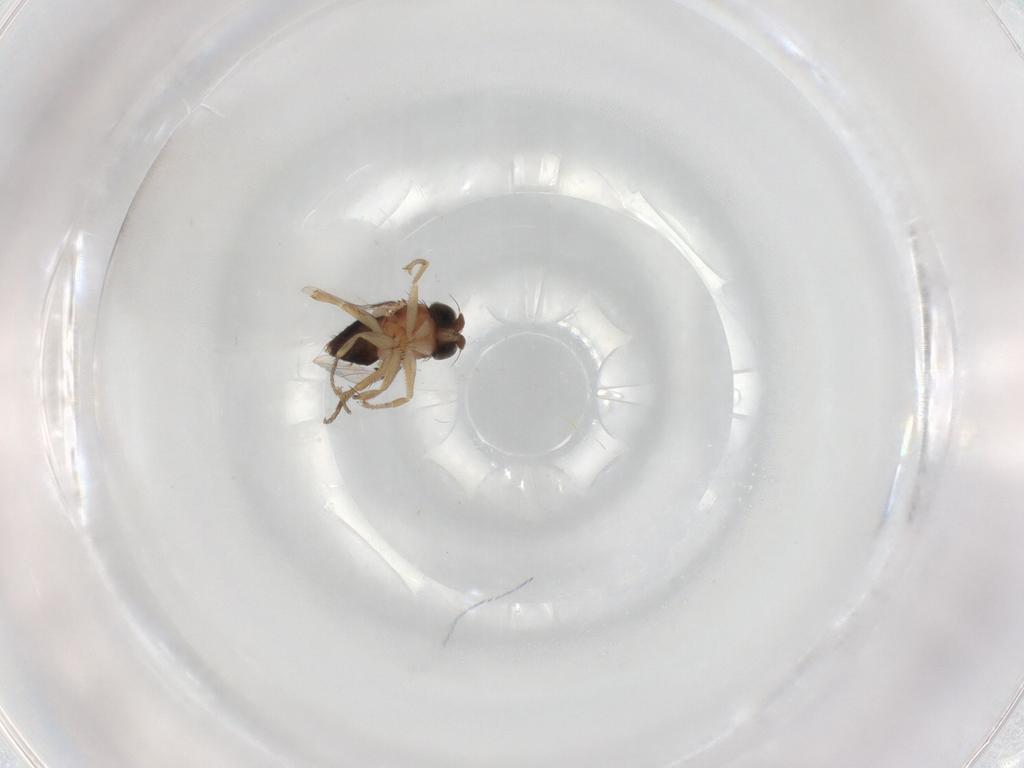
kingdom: Animalia
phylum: Arthropoda
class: Insecta
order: Diptera
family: Phoridae
